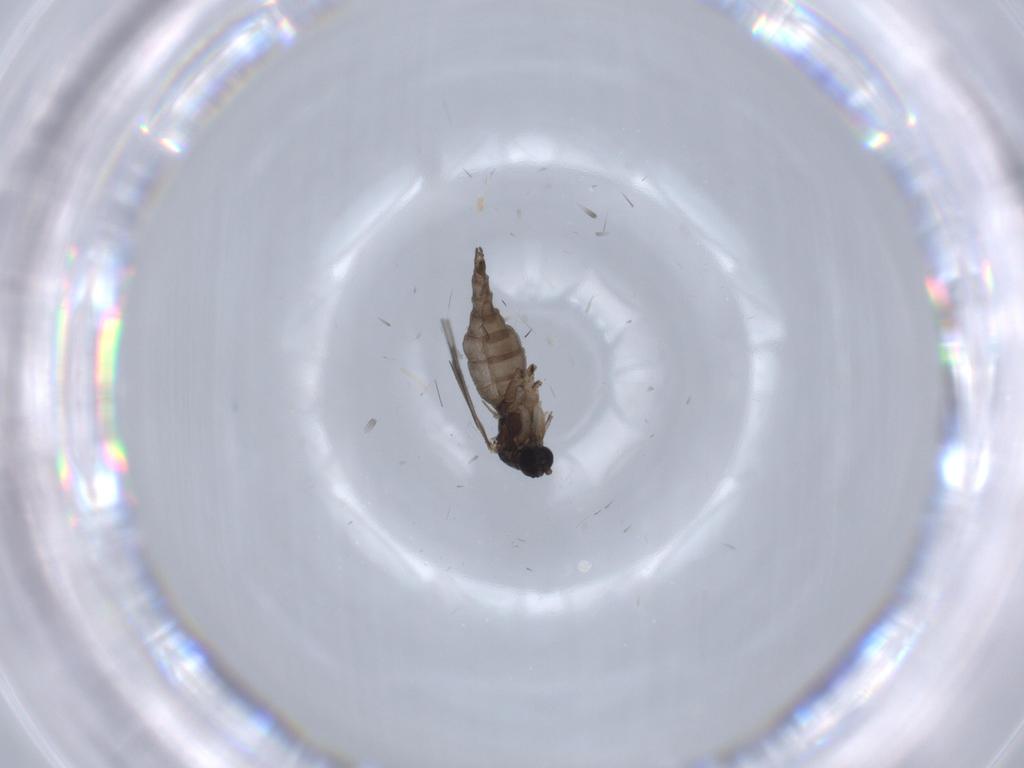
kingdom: Animalia
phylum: Arthropoda
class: Insecta
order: Diptera
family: Sciaridae
